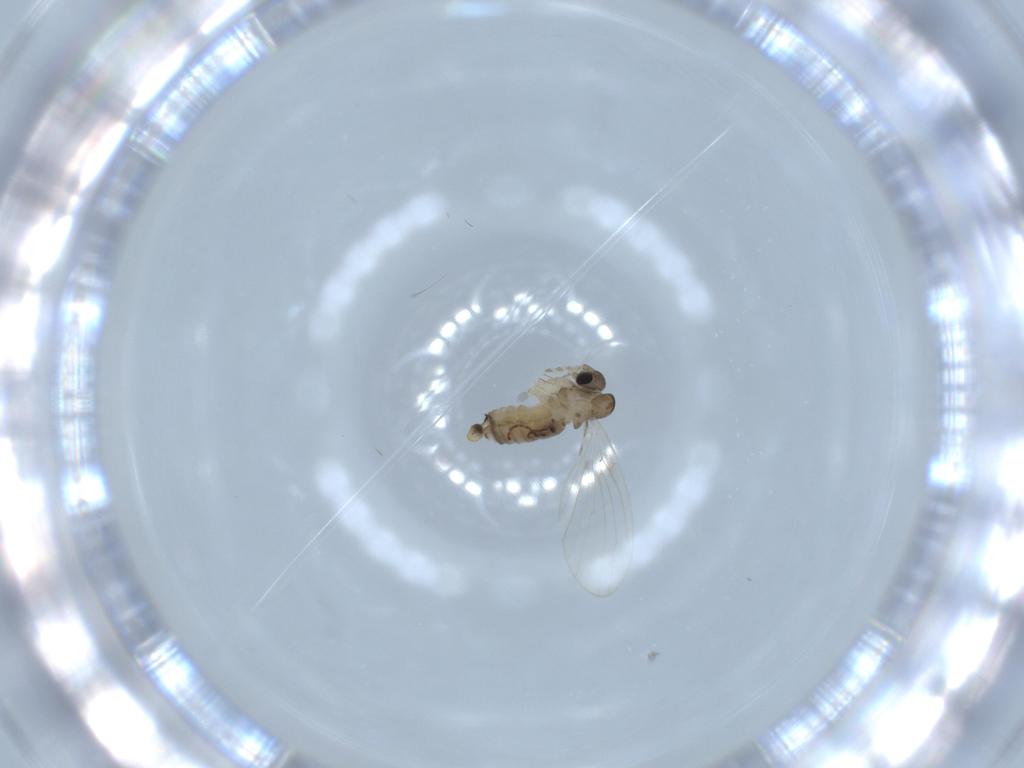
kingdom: Animalia
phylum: Arthropoda
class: Insecta
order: Diptera
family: Psychodidae
